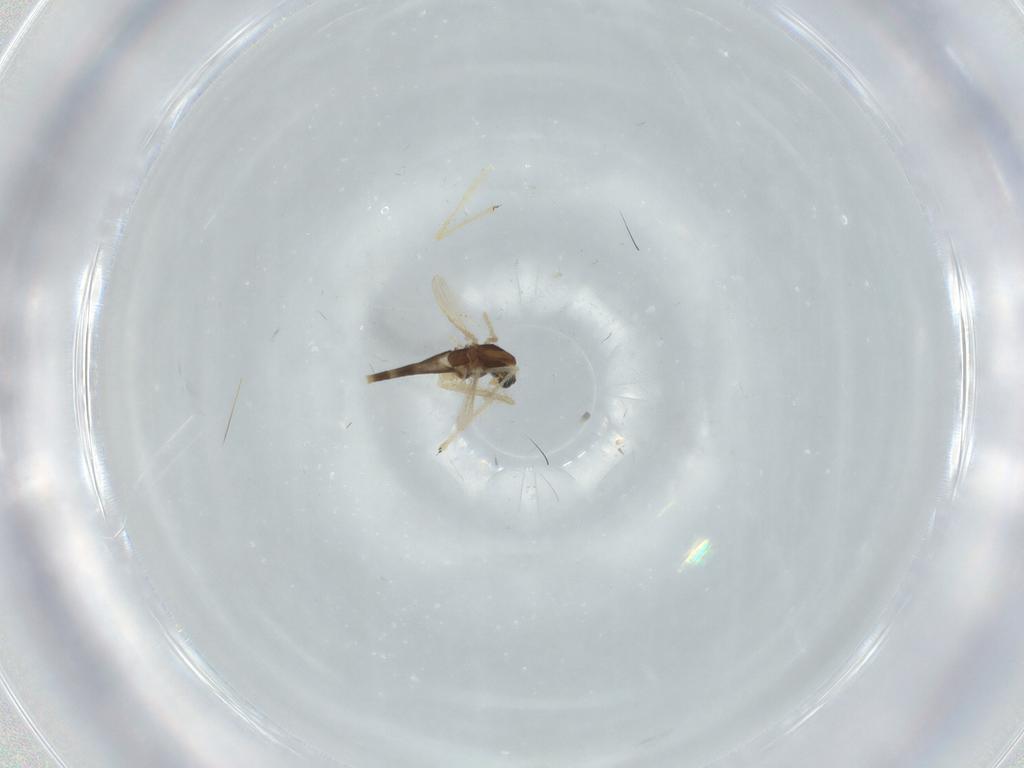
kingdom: Animalia
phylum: Arthropoda
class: Insecta
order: Diptera
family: Chironomidae
